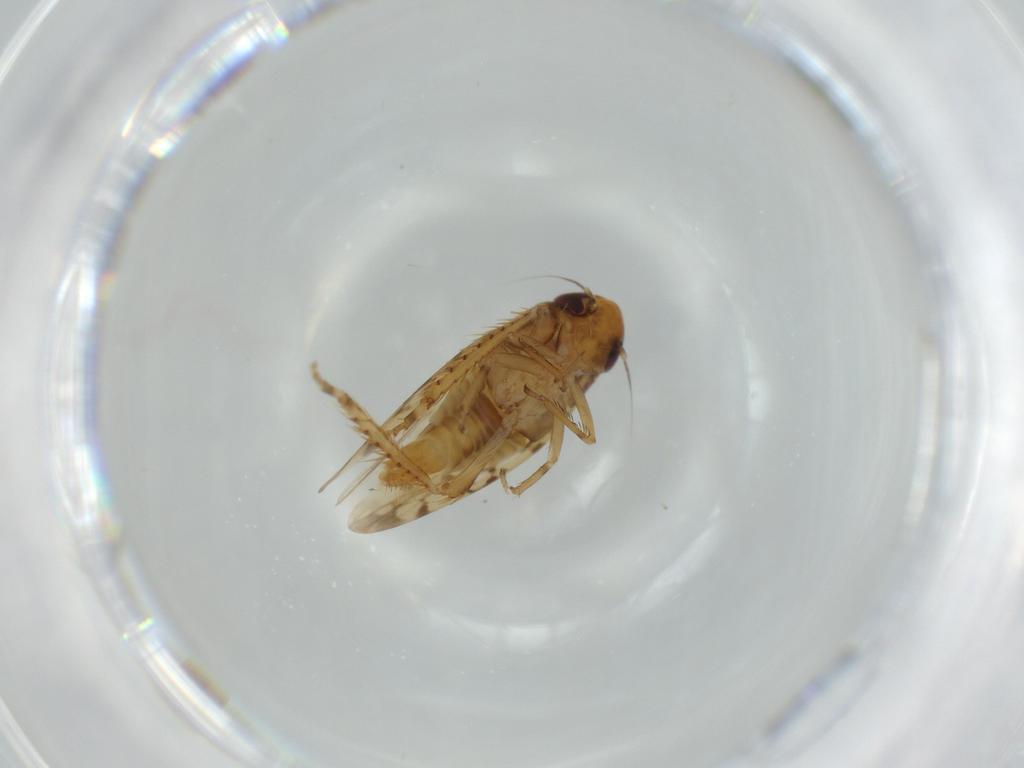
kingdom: Animalia
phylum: Arthropoda
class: Insecta
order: Hemiptera
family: Cicadellidae
